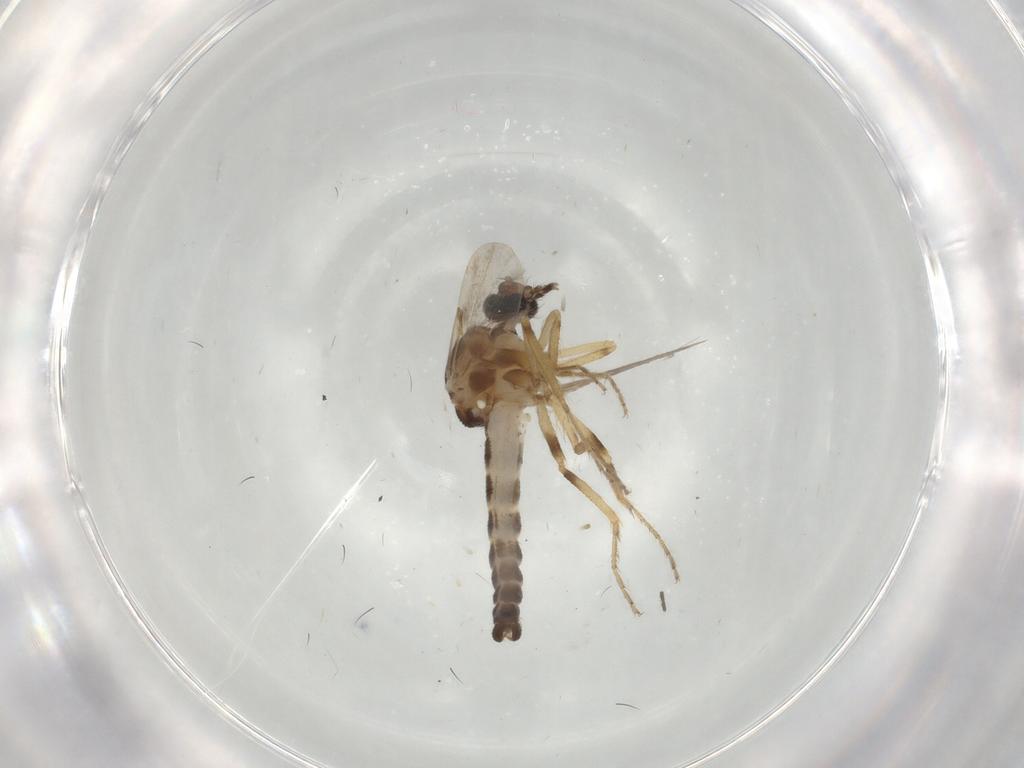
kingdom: Animalia
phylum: Arthropoda
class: Insecta
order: Diptera
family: Ceratopogonidae
